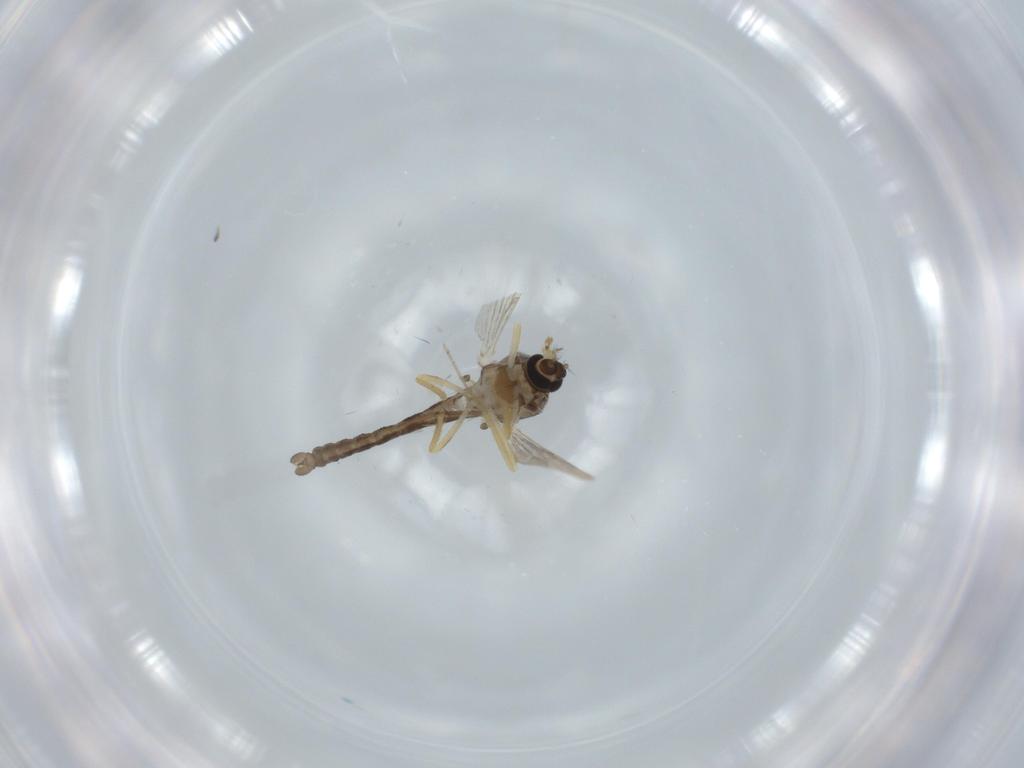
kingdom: Animalia
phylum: Arthropoda
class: Insecta
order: Diptera
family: Ceratopogonidae
